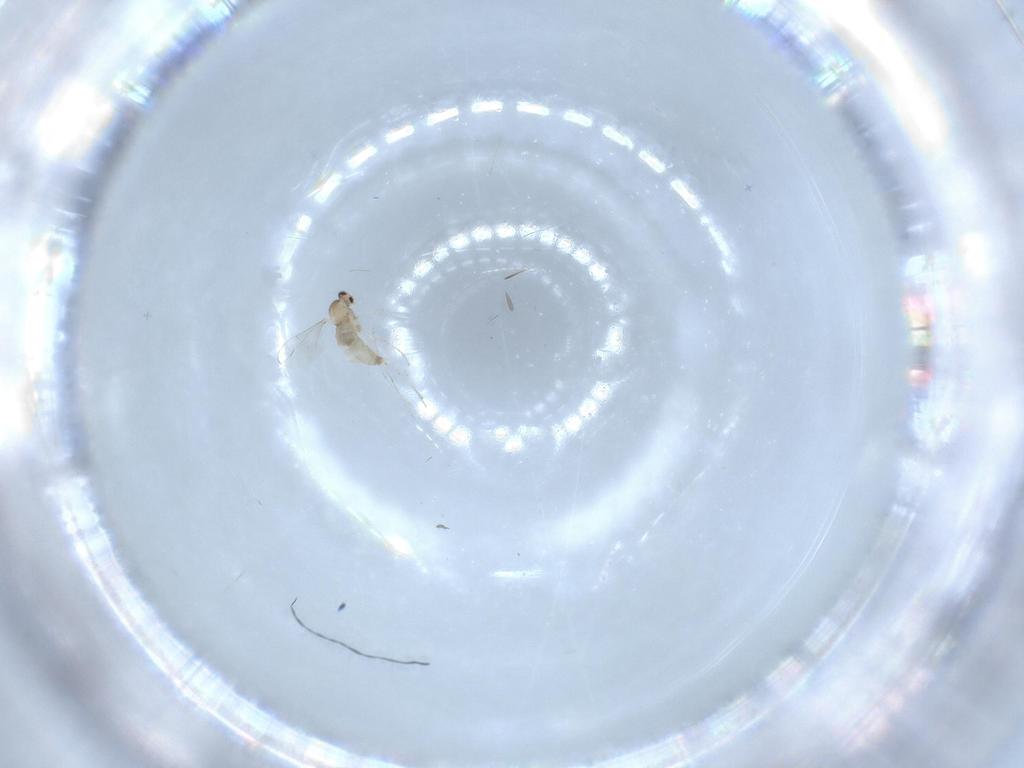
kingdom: Animalia
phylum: Arthropoda
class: Insecta
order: Diptera
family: Cecidomyiidae
